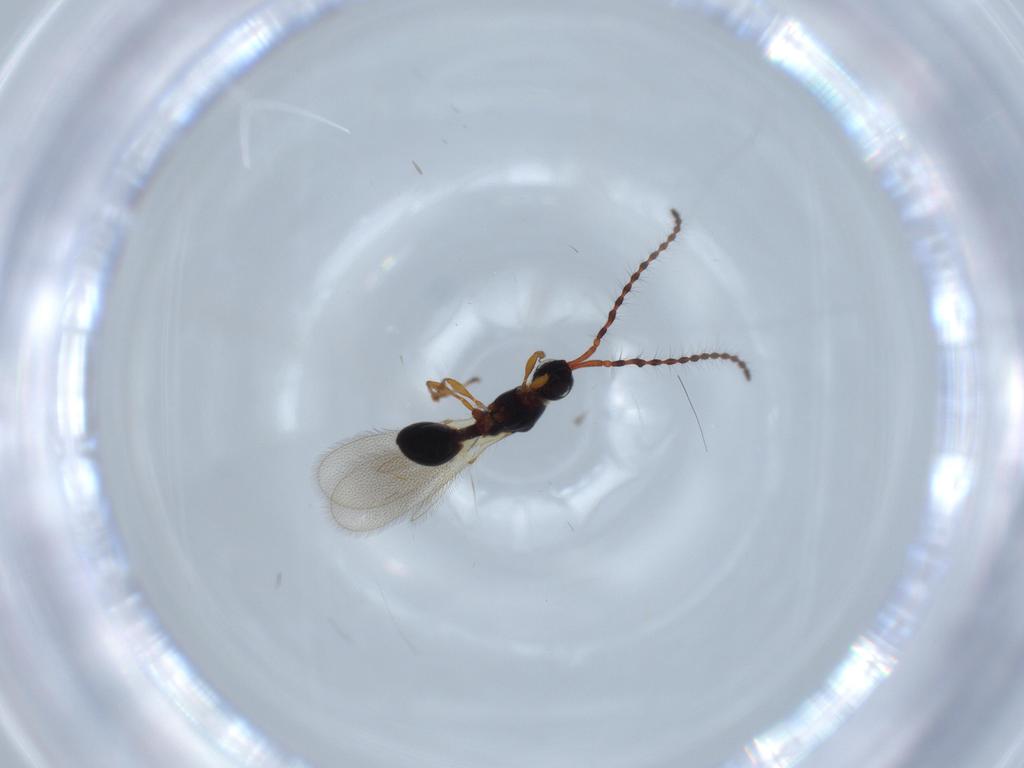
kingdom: Animalia
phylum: Arthropoda
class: Insecta
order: Hymenoptera
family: Diapriidae
